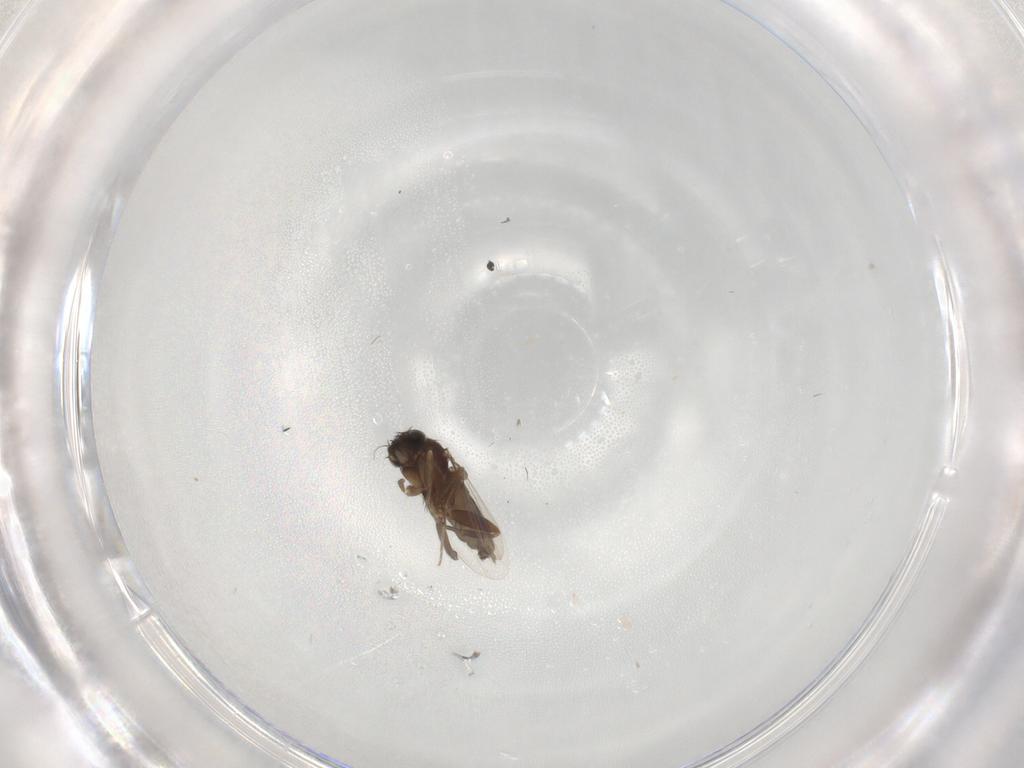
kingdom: Animalia
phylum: Arthropoda
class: Insecta
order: Diptera
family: Phoridae
